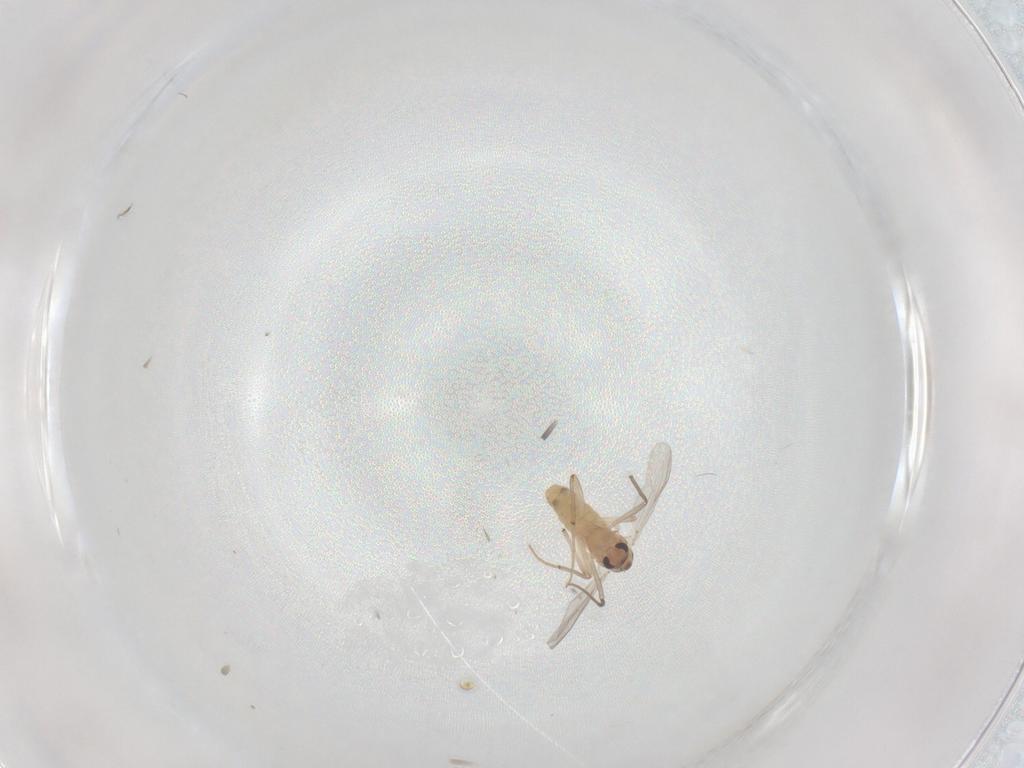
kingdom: Animalia
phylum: Arthropoda
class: Insecta
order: Diptera
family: Chironomidae
